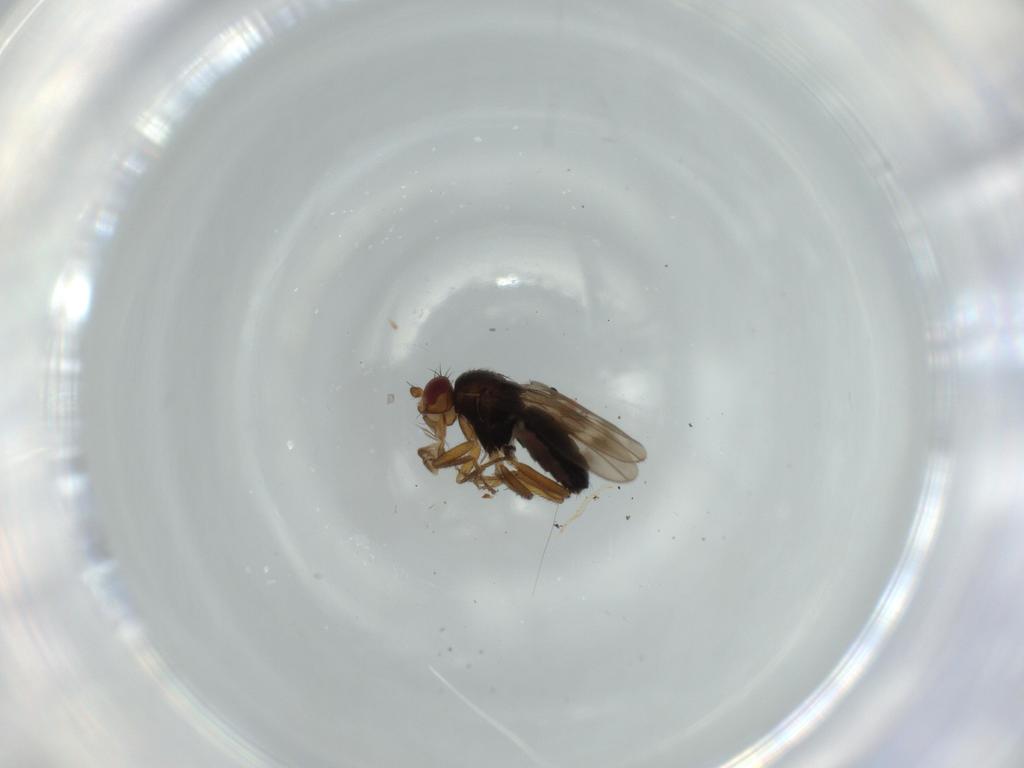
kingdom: Animalia
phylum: Arthropoda
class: Insecta
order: Diptera
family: Sphaeroceridae
